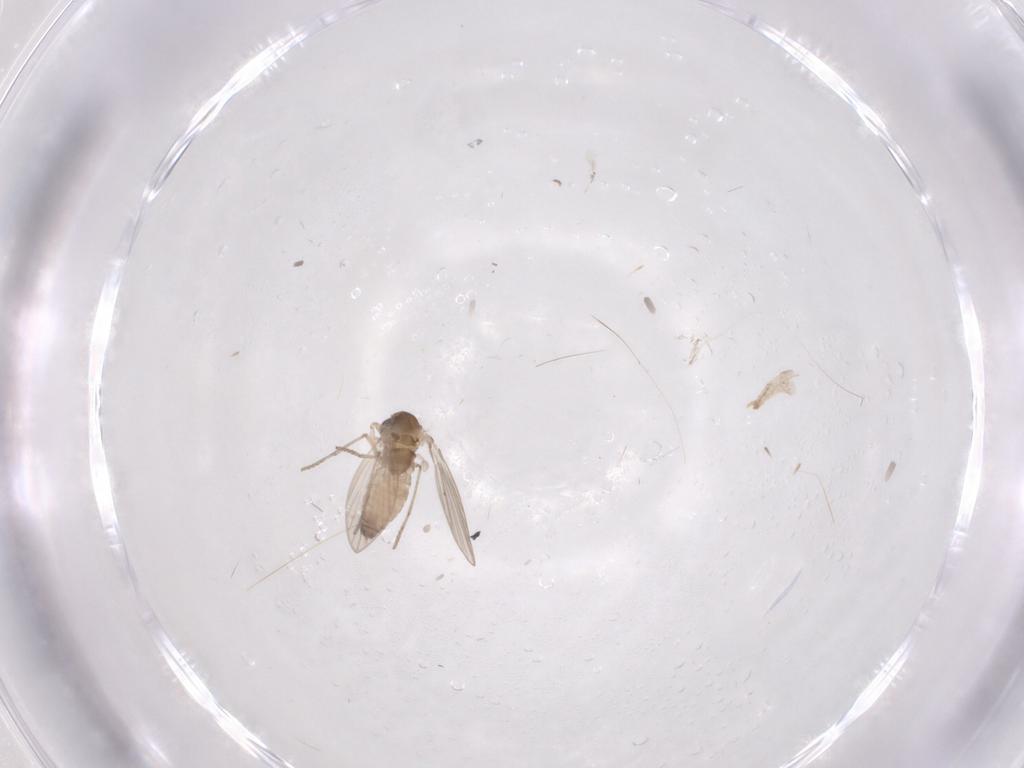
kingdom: Animalia
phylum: Arthropoda
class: Insecta
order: Diptera
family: Psychodidae
